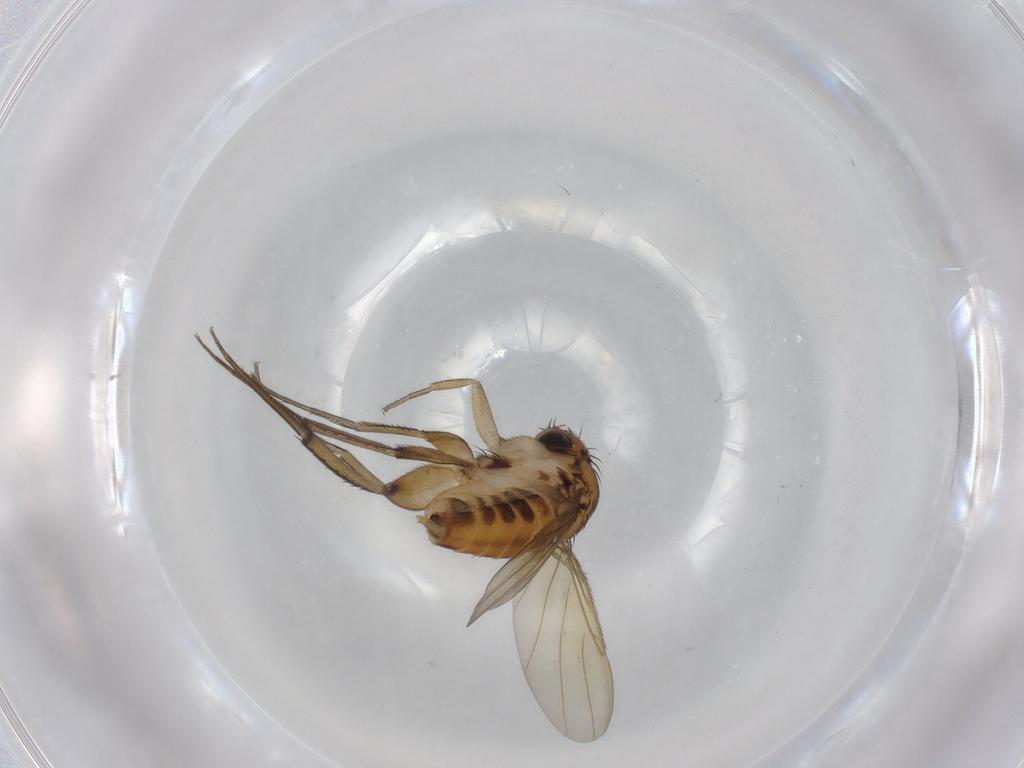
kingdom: Animalia
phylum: Arthropoda
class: Insecta
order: Diptera
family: Phoridae
